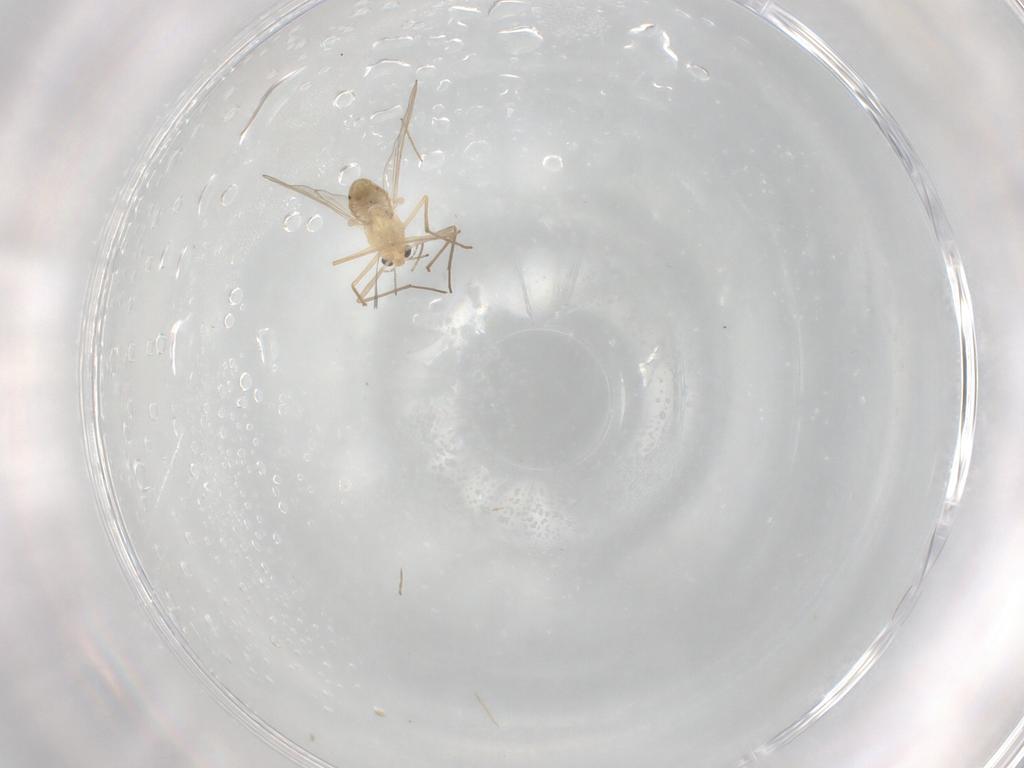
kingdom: Animalia
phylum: Arthropoda
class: Insecta
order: Diptera
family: Chironomidae
